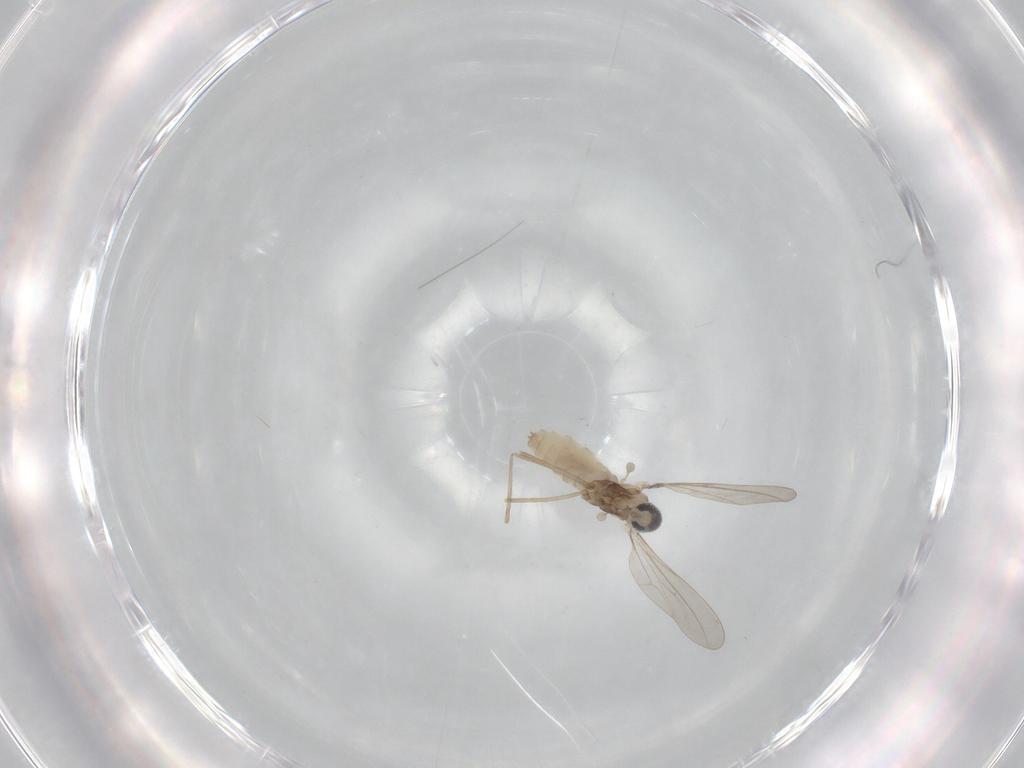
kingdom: Animalia
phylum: Arthropoda
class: Insecta
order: Diptera
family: Cecidomyiidae
